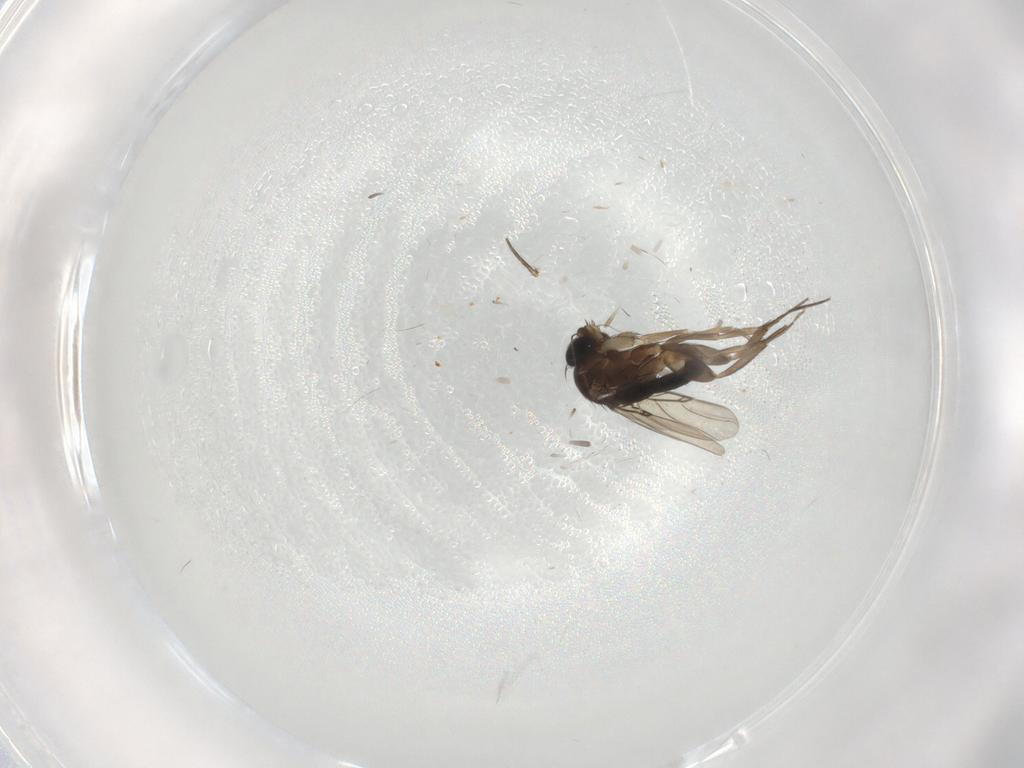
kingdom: Animalia
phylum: Arthropoda
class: Insecta
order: Diptera
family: Phoridae
